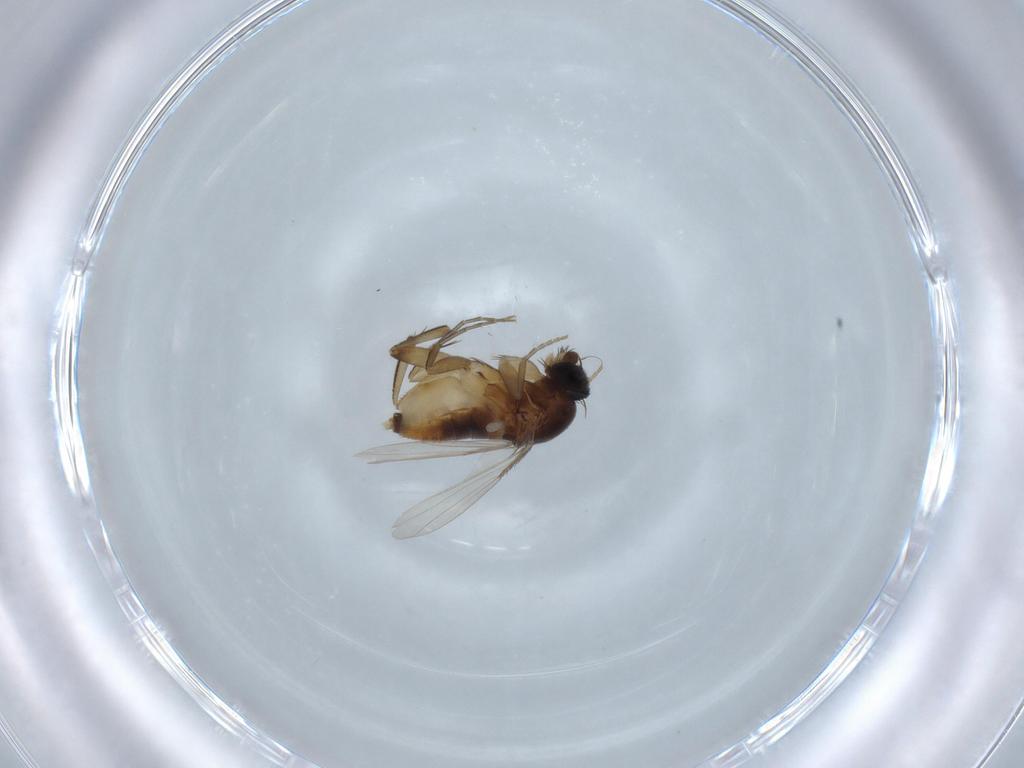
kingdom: Animalia
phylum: Arthropoda
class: Insecta
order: Diptera
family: Phoridae
